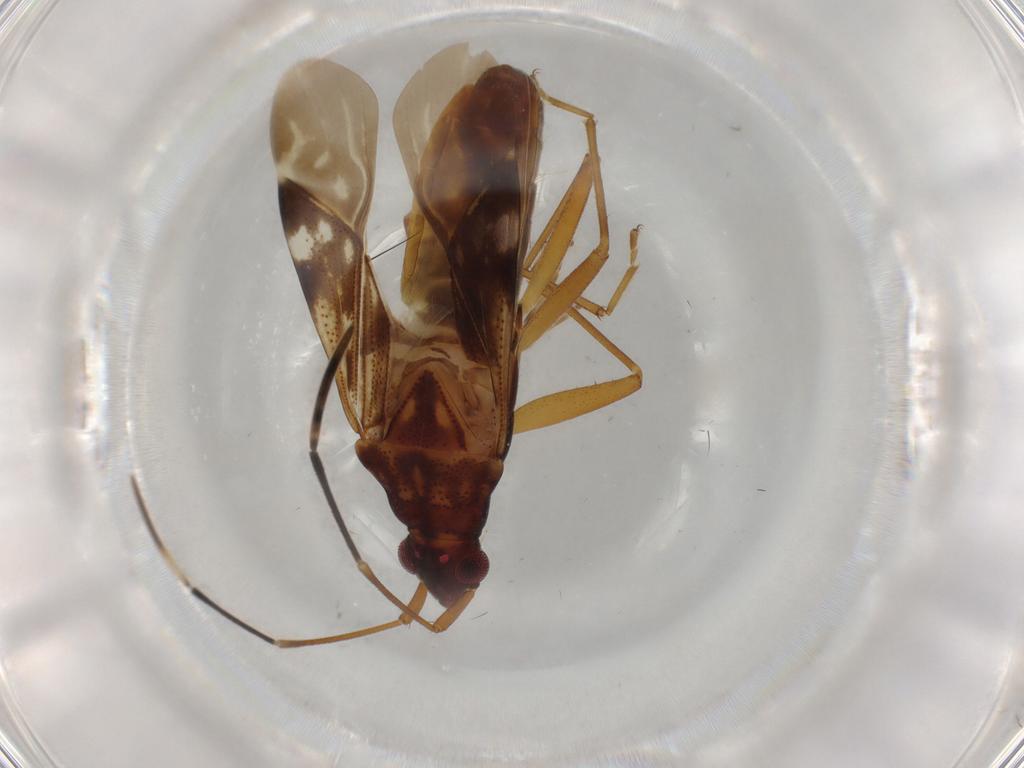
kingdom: Animalia
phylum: Arthropoda
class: Insecta
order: Hemiptera
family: Rhyparochromidae
